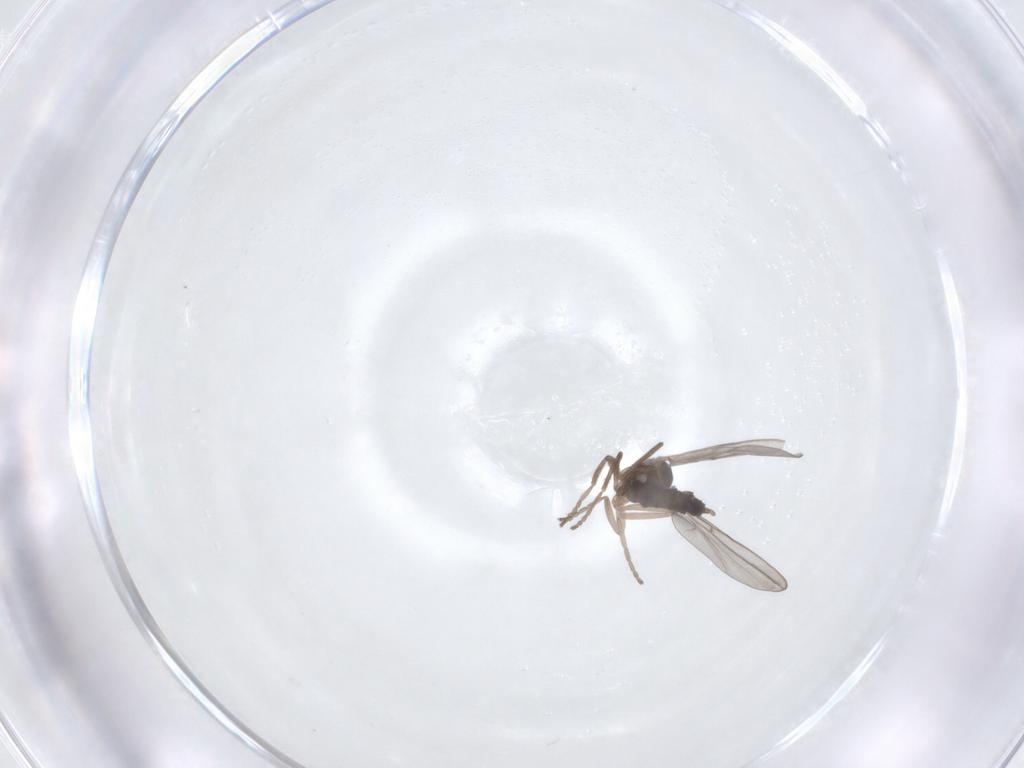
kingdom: Animalia
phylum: Arthropoda
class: Insecta
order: Diptera
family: Cecidomyiidae
